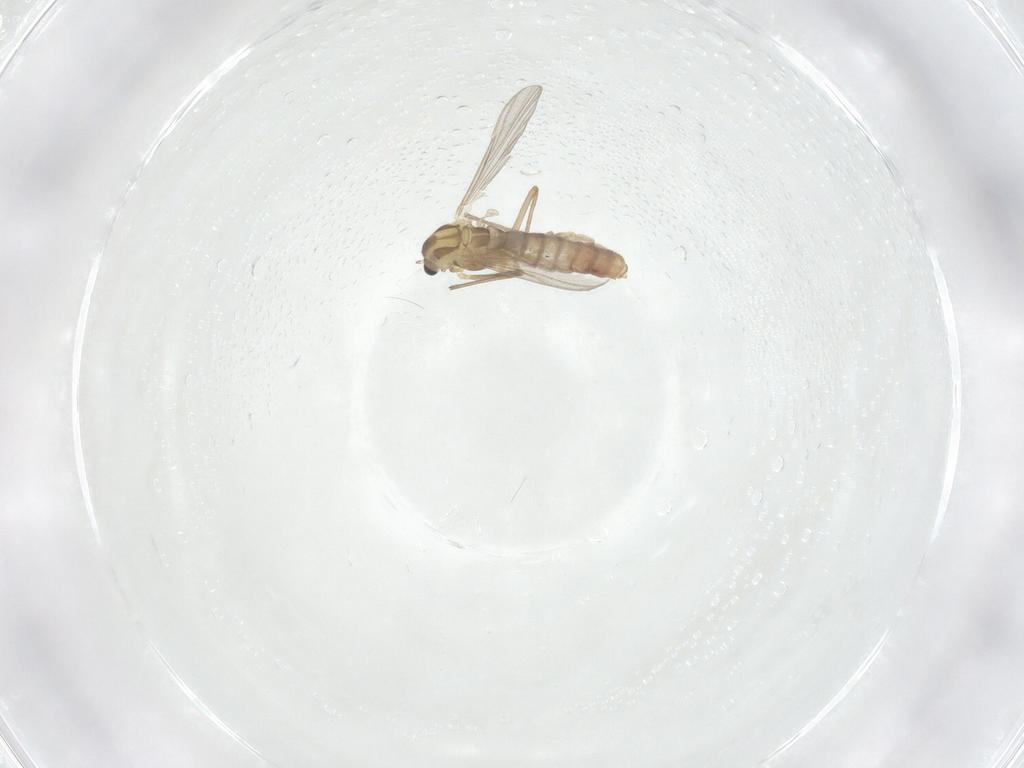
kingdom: Animalia
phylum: Arthropoda
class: Insecta
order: Diptera
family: Chironomidae
